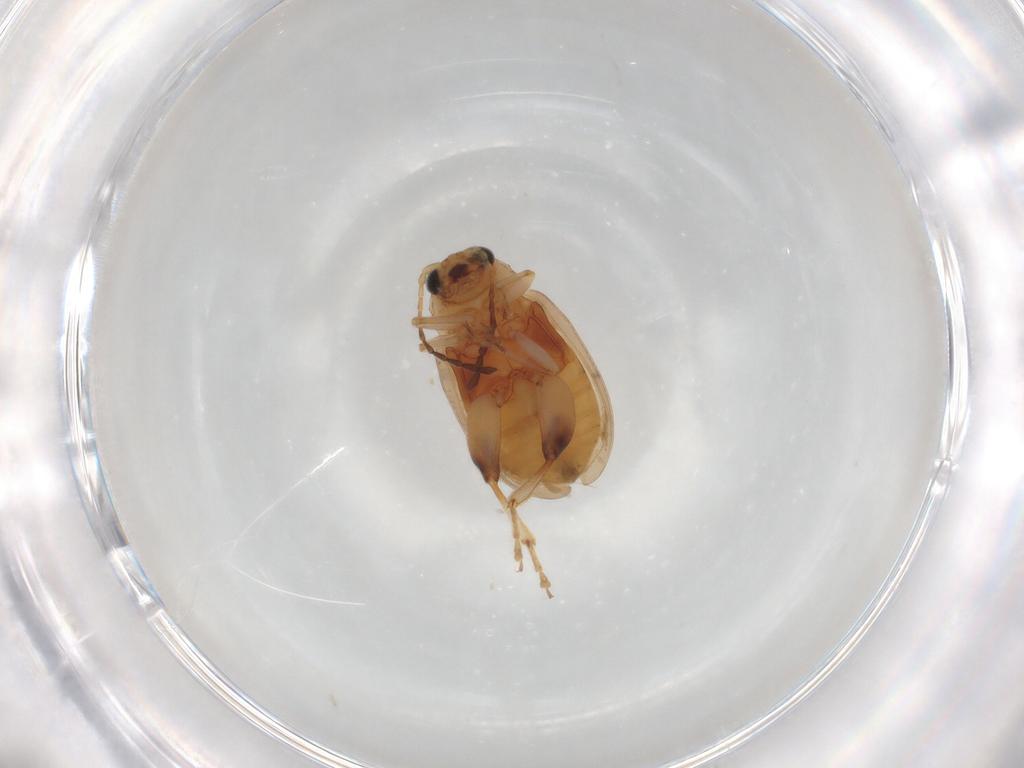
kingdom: Animalia
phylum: Arthropoda
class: Insecta
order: Coleoptera
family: Chrysomelidae
